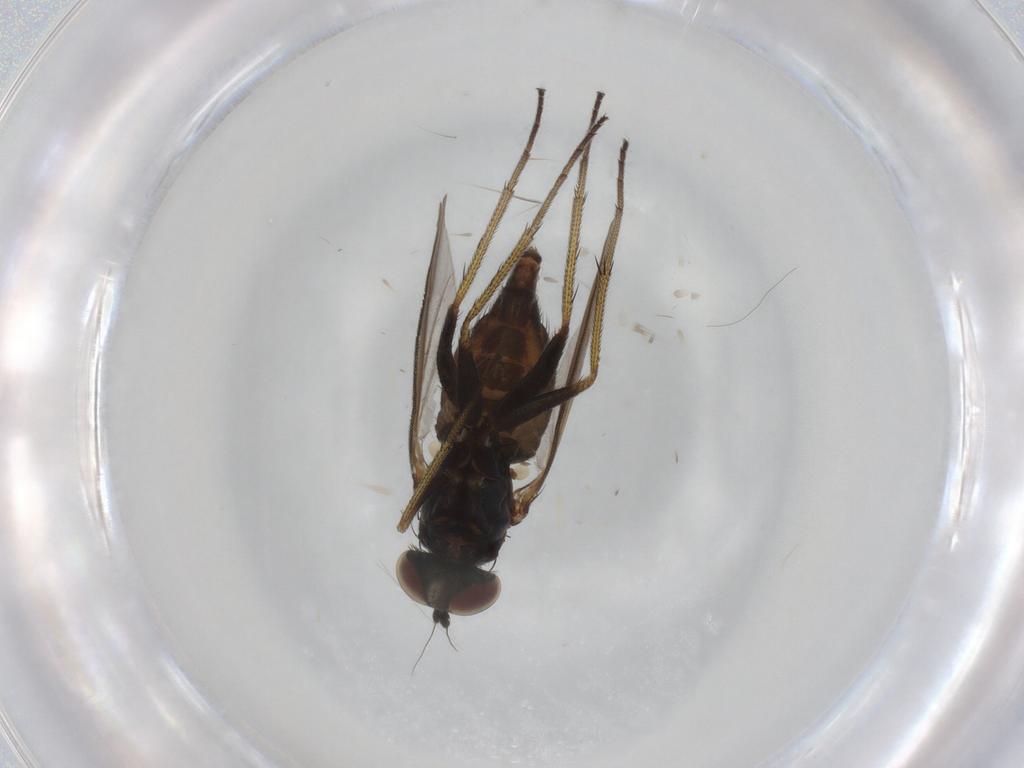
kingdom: Animalia
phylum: Arthropoda
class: Insecta
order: Diptera
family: Dolichopodidae
